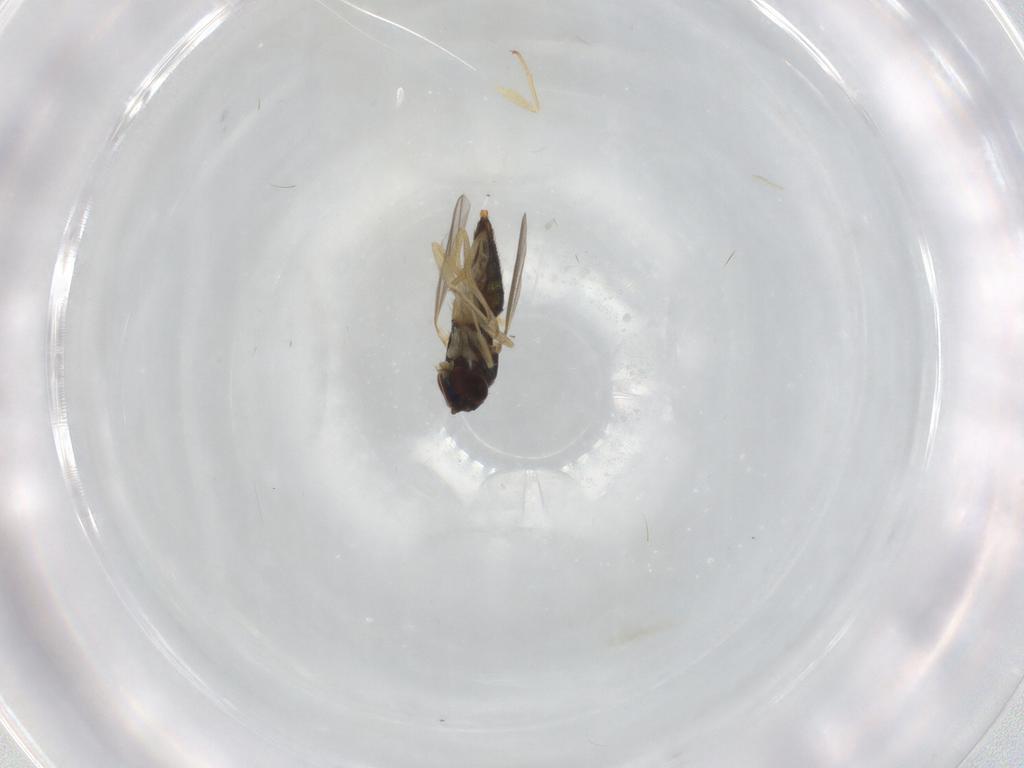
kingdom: Animalia
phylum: Arthropoda
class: Insecta
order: Diptera
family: Dolichopodidae
